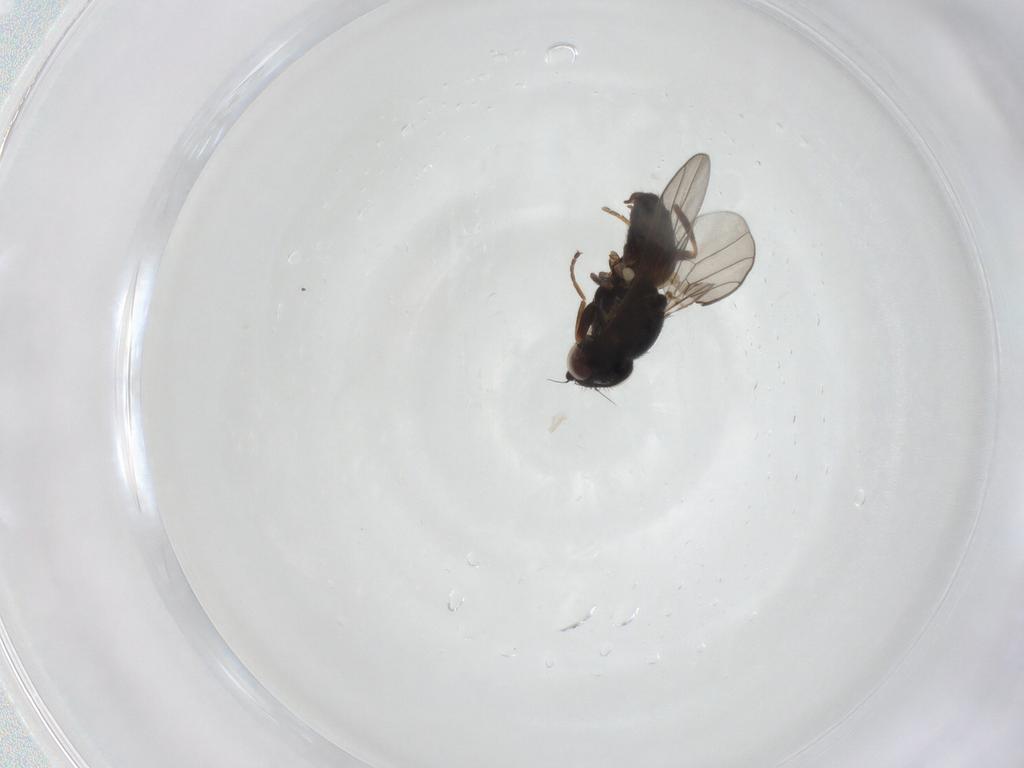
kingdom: Animalia
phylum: Arthropoda
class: Insecta
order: Diptera
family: Chloropidae
